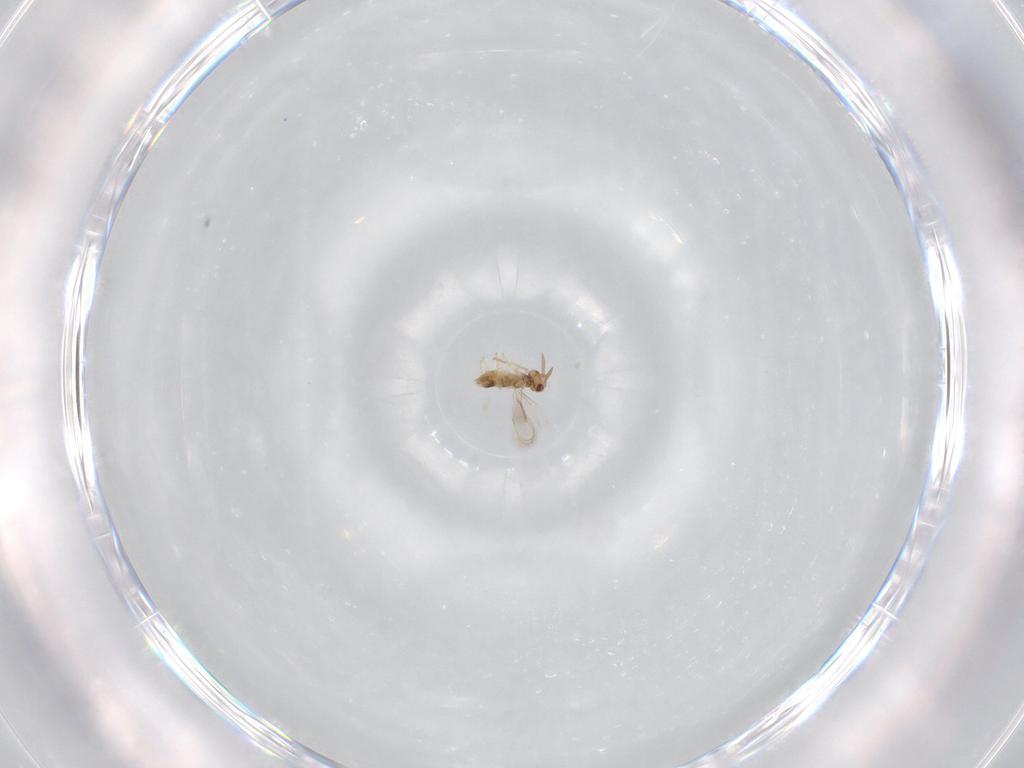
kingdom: Animalia
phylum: Arthropoda
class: Insecta
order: Hymenoptera
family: Aphelinidae
